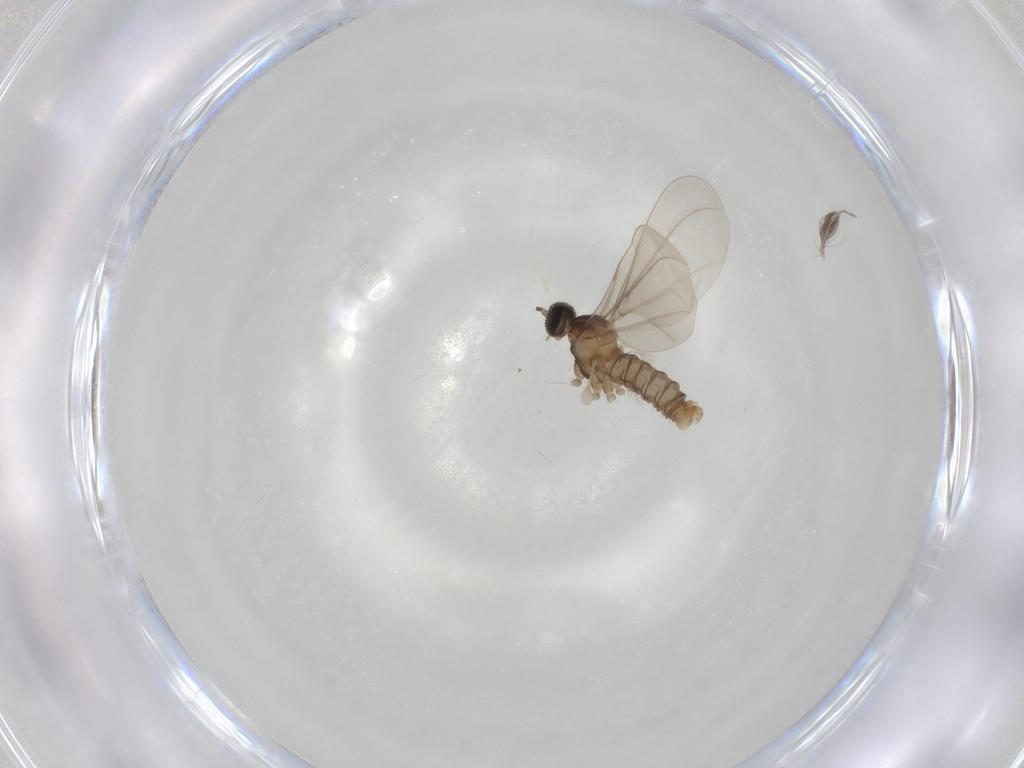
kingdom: Animalia
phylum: Arthropoda
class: Insecta
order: Diptera
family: Cecidomyiidae
